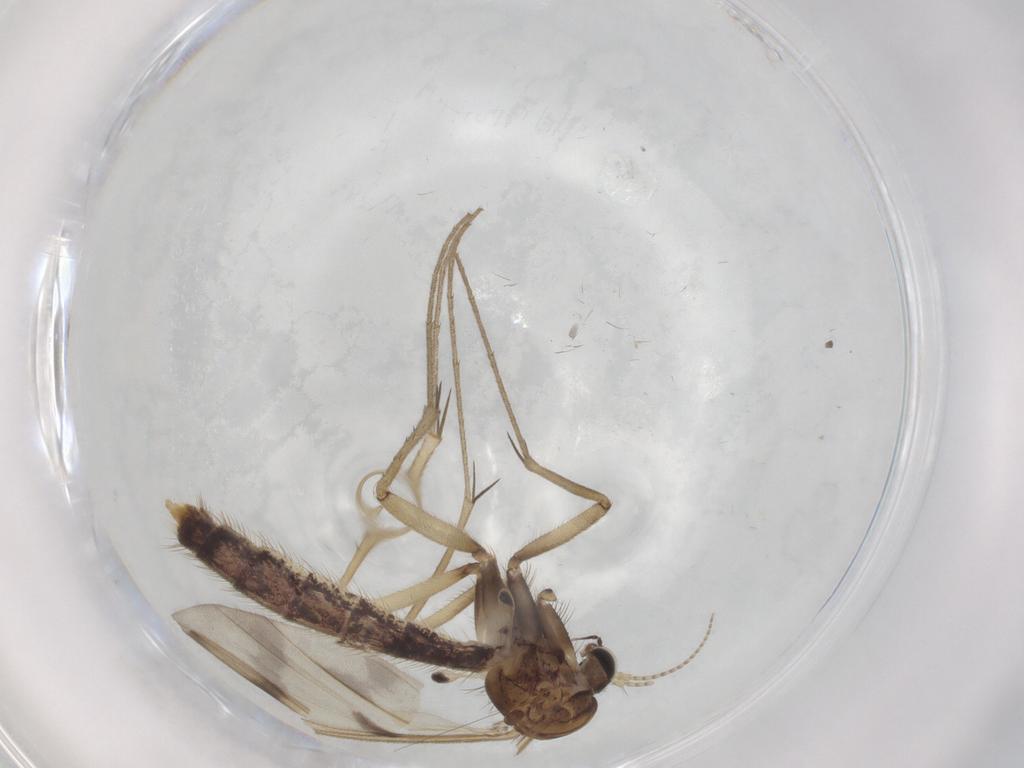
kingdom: Animalia
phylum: Arthropoda
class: Insecta
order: Diptera
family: Mycetophilidae
